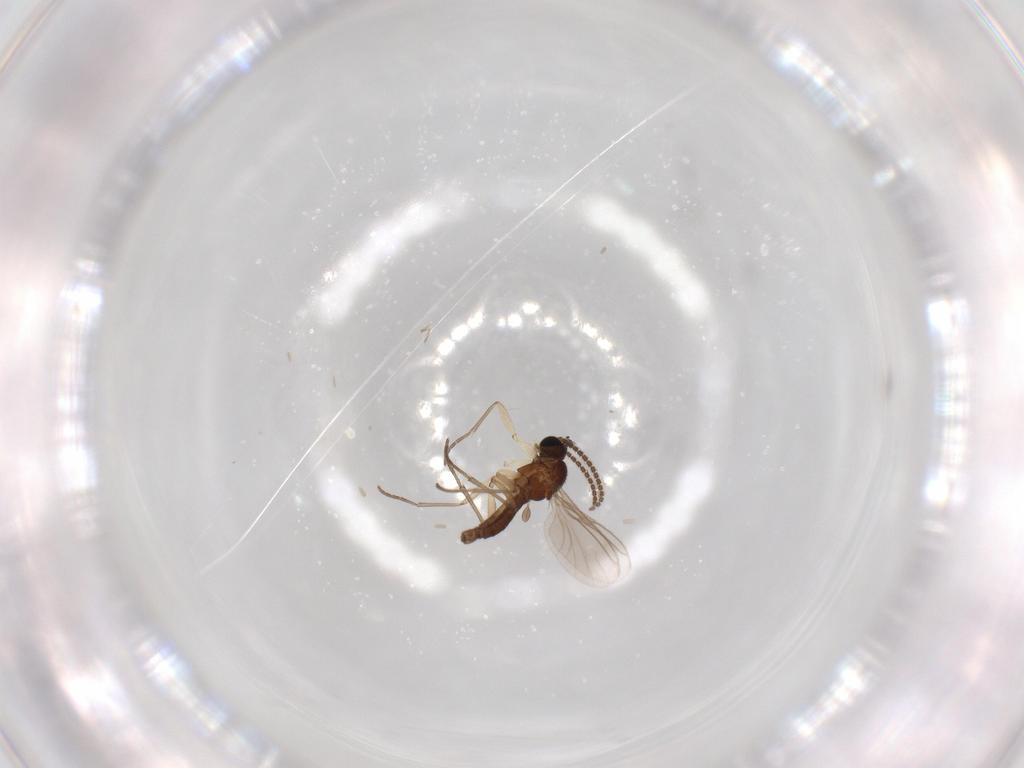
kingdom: Animalia
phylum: Arthropoda
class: Insecta
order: Diptera
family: Sciaridae
